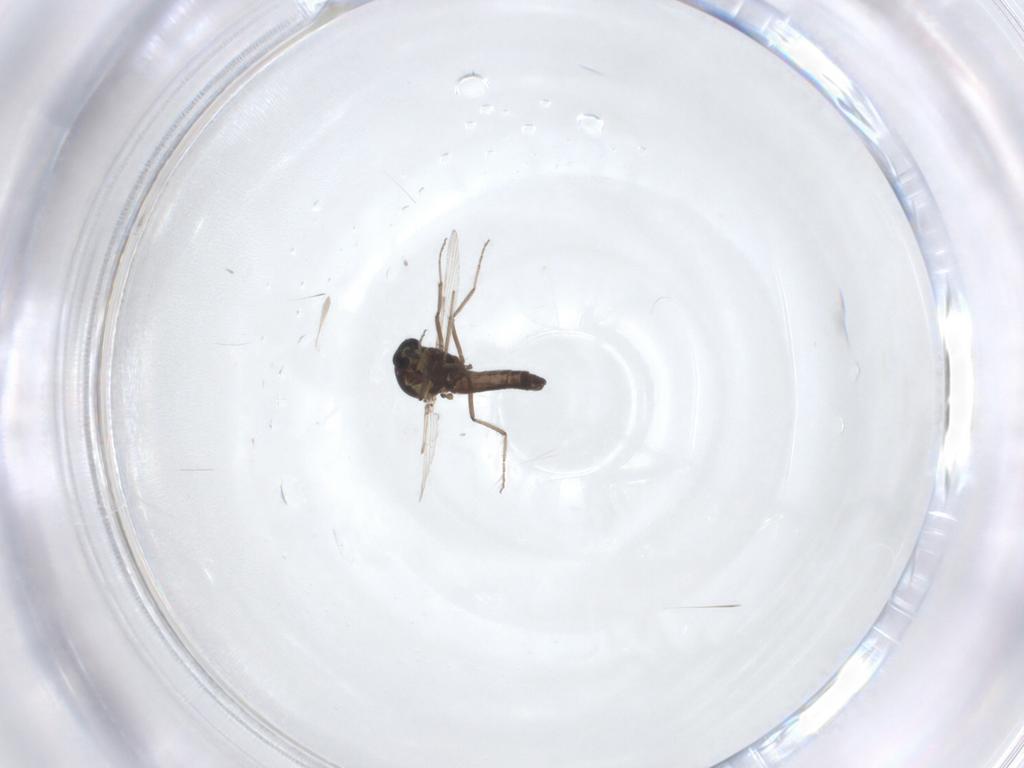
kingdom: Animalia
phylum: Arthropoda
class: Insecta
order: Diptera
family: Ceratopogonidae
